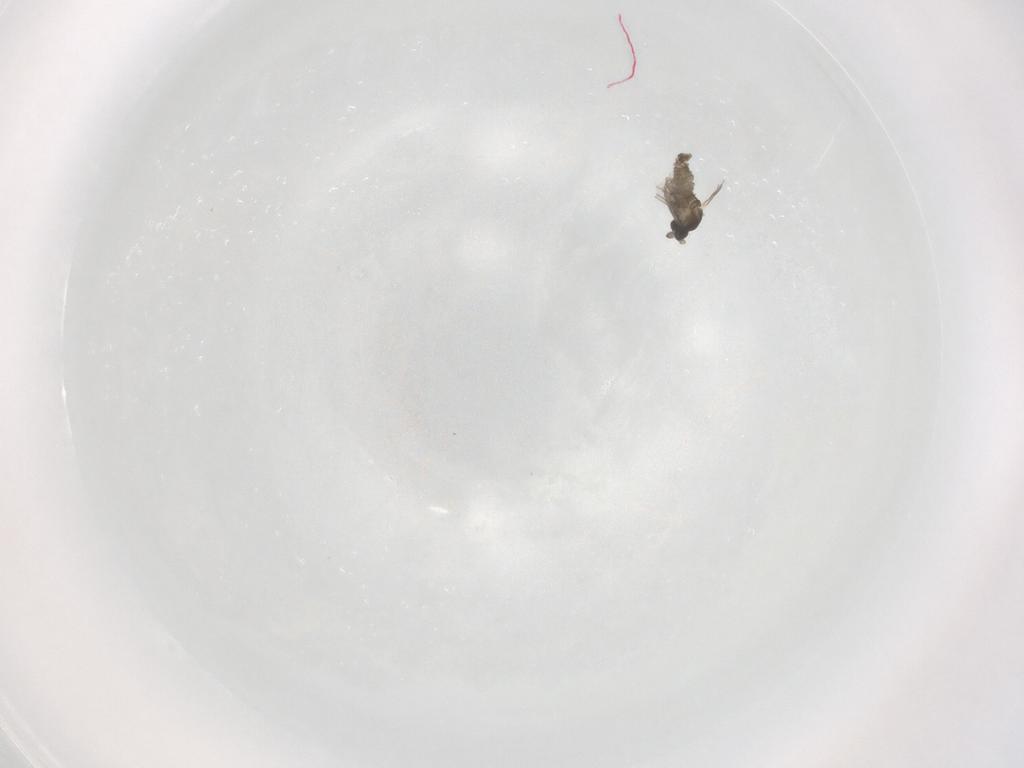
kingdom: Animalia
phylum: Arthropoda
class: Insecta
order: Diptera
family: Cecidomyiidae
